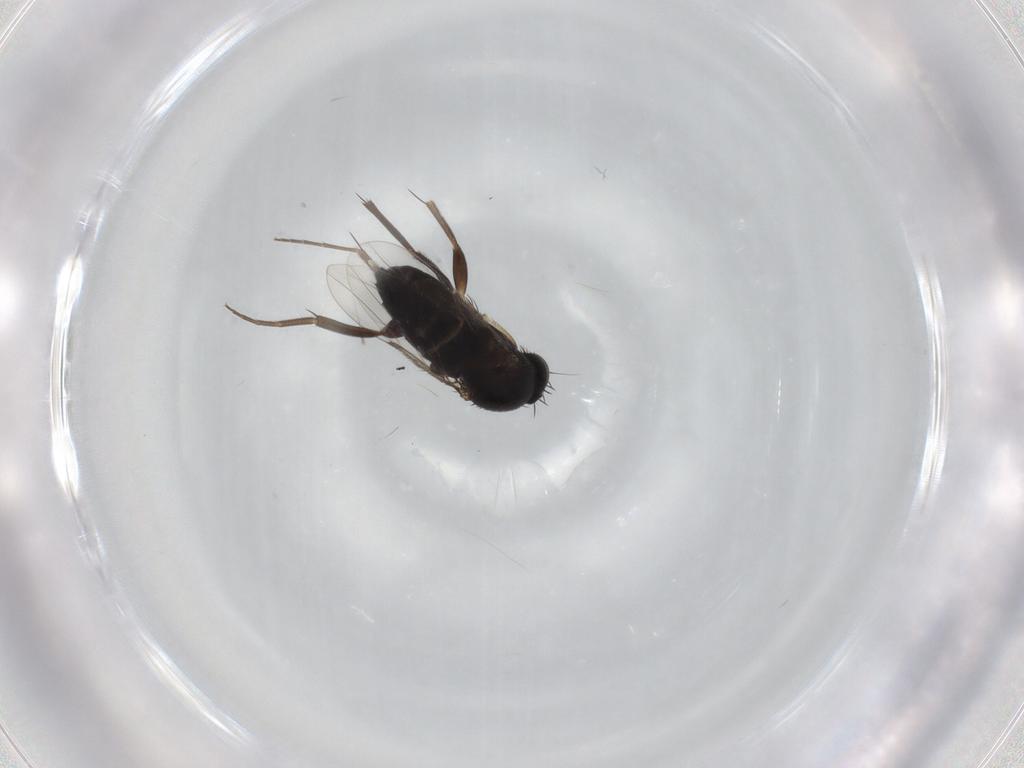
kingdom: Animalia
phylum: Arthropoda
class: Insecta
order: Diptera
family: Phoridae
